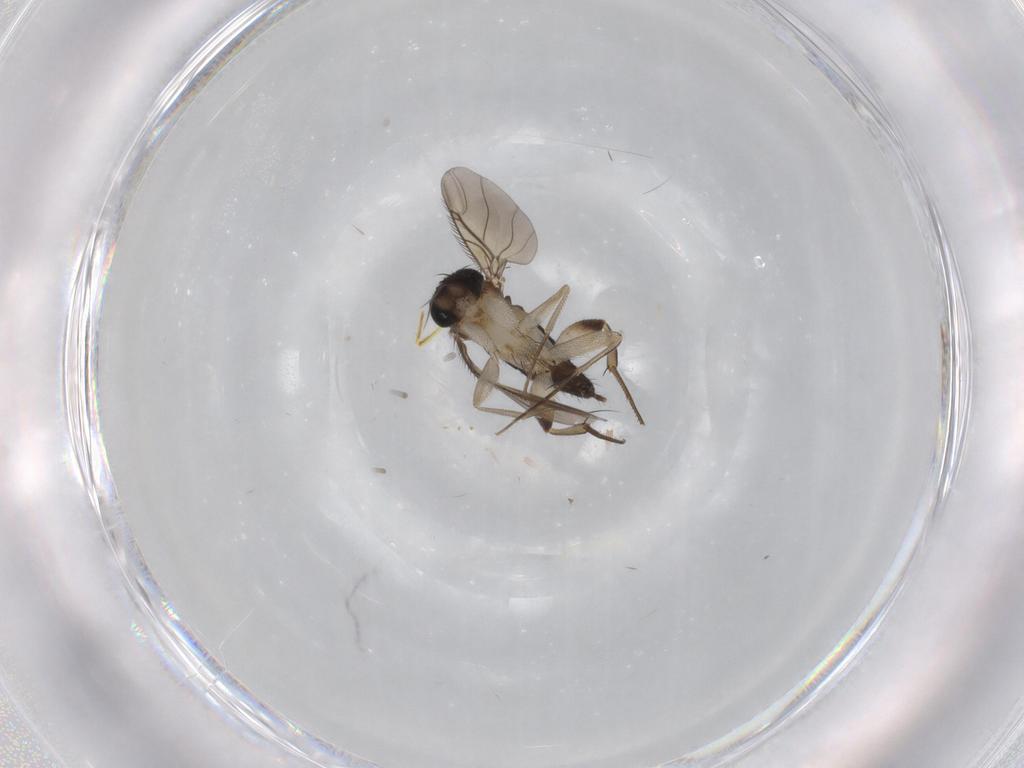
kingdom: Animalia
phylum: Arthropoda
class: Insecta
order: Diptera
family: Phoridae
